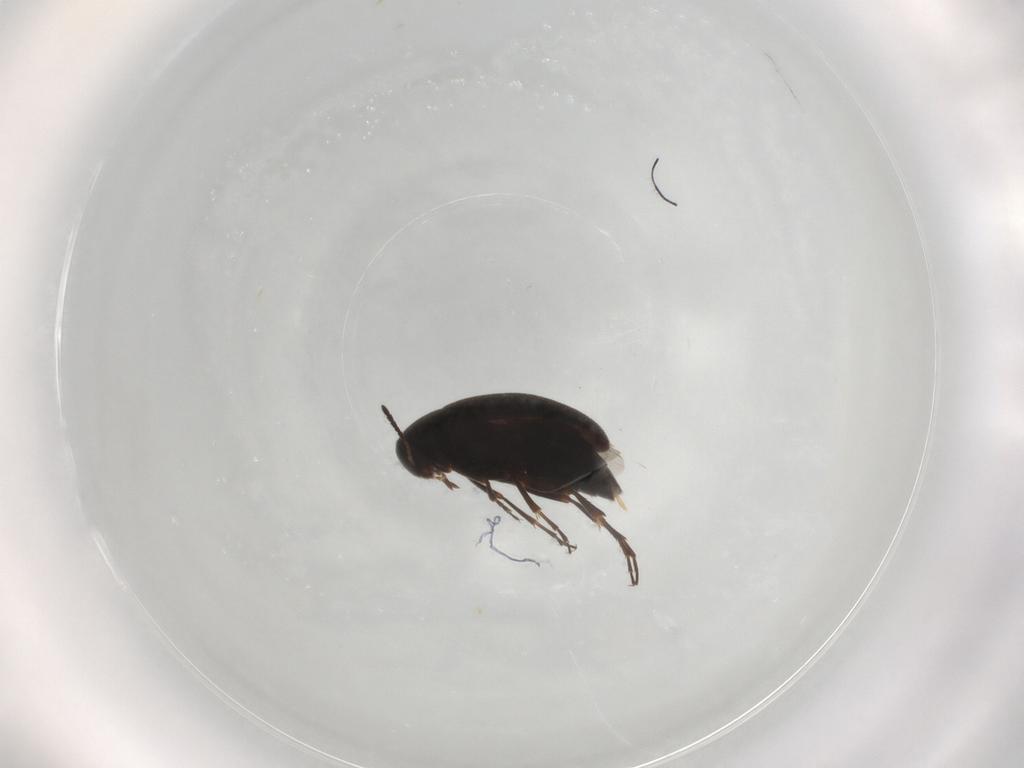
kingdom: Animalia
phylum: Arthropoda
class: Insecta
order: Coleoptera
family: Scraptiidae
